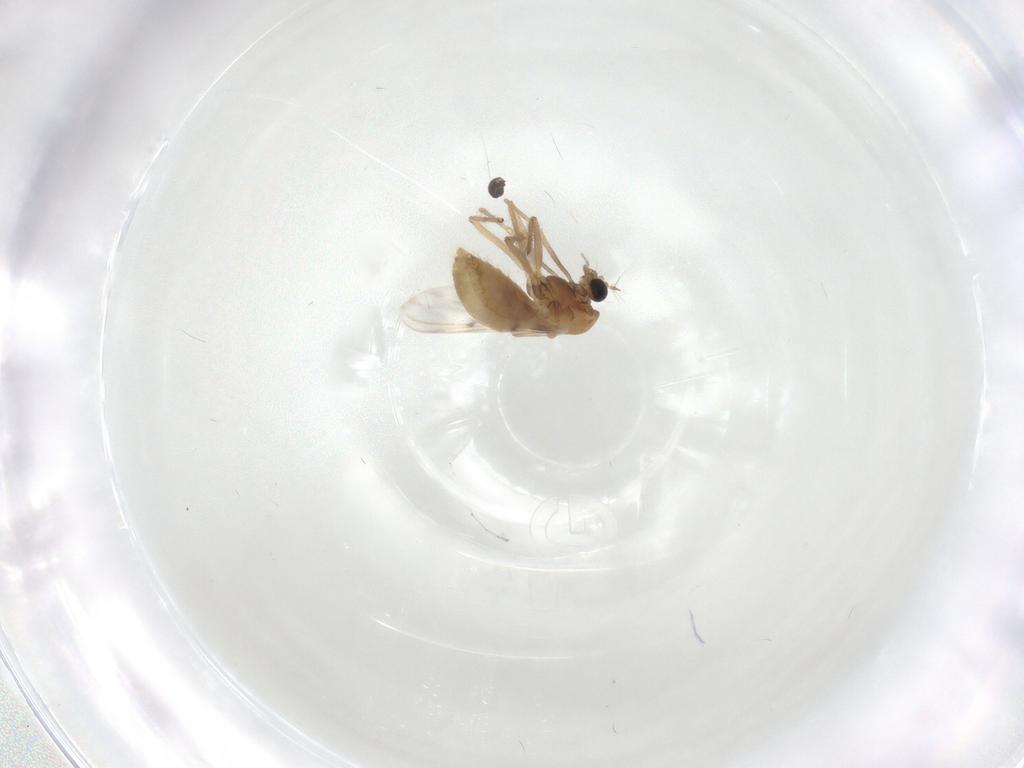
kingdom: Animalia
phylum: Arthropoda
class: Insecta
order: Diptera
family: Chironomidae
